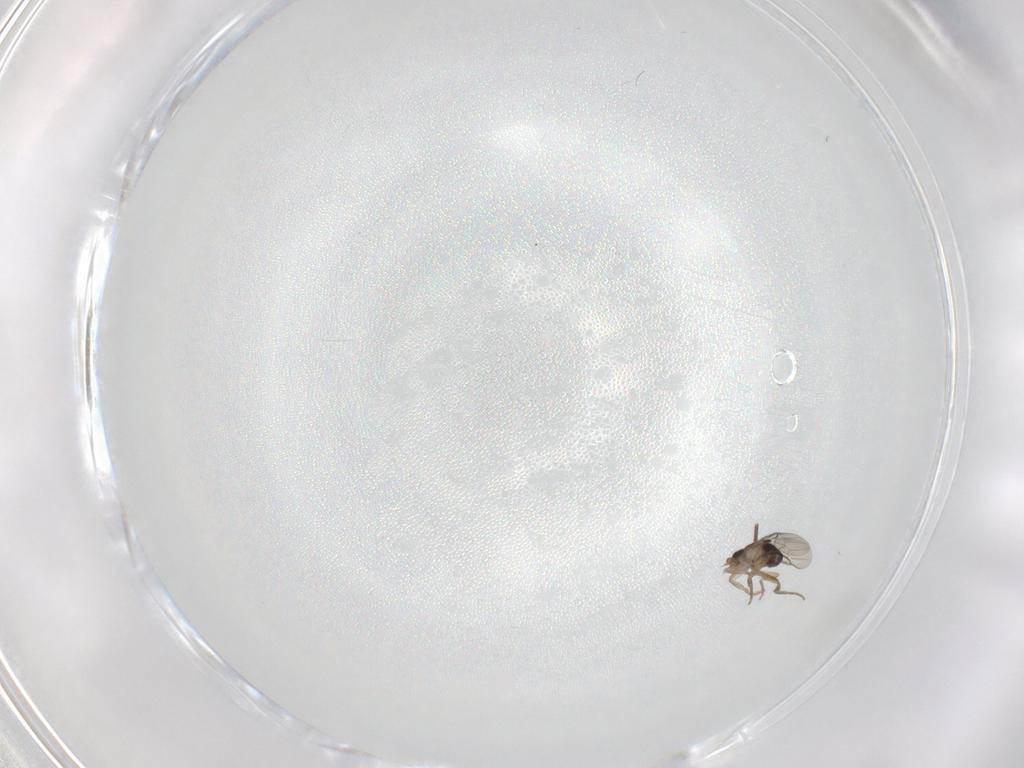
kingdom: Animalia
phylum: Arthropoda
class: Insecta
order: Diptera
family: Phoridae
